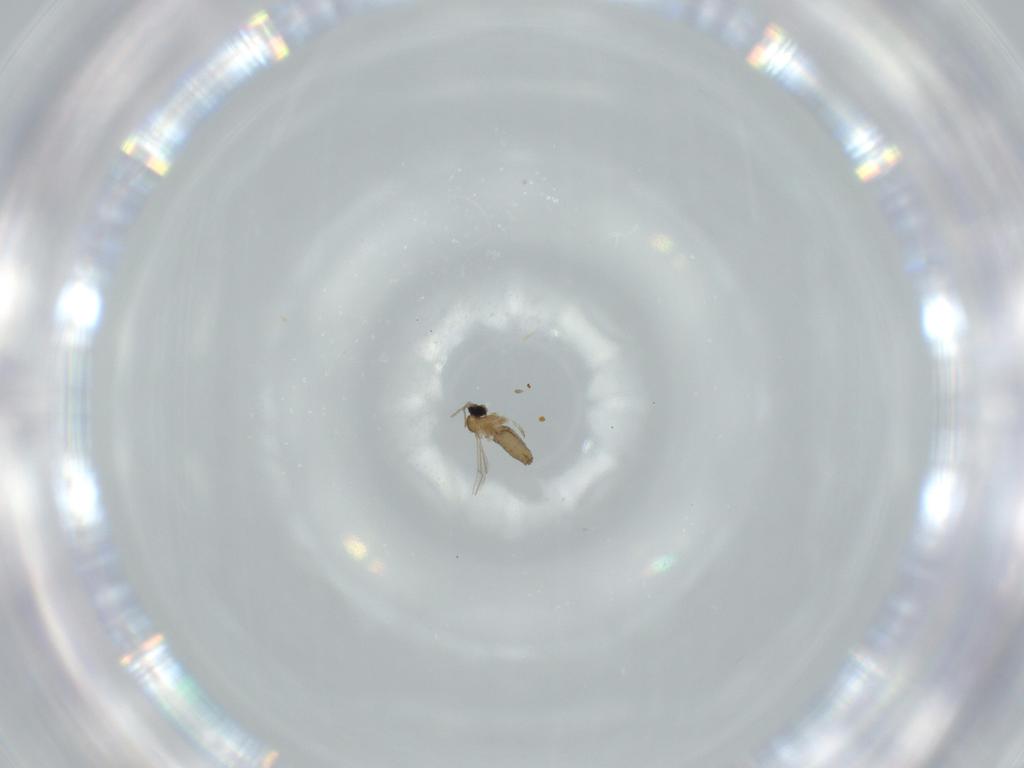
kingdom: Animalia
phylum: Arthropoda
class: Insecta
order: Diptera
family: Cecidomyiidae
